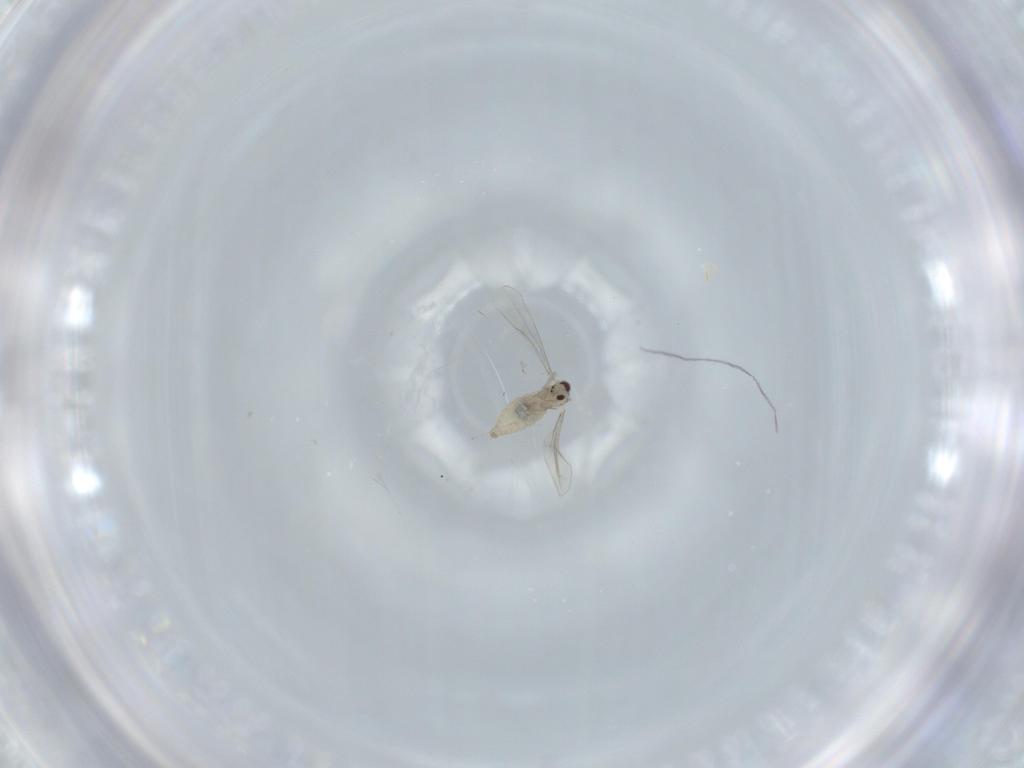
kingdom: Animalia
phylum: Arthropoda
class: Insecta
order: Diptera
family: Cecidomyiidae
